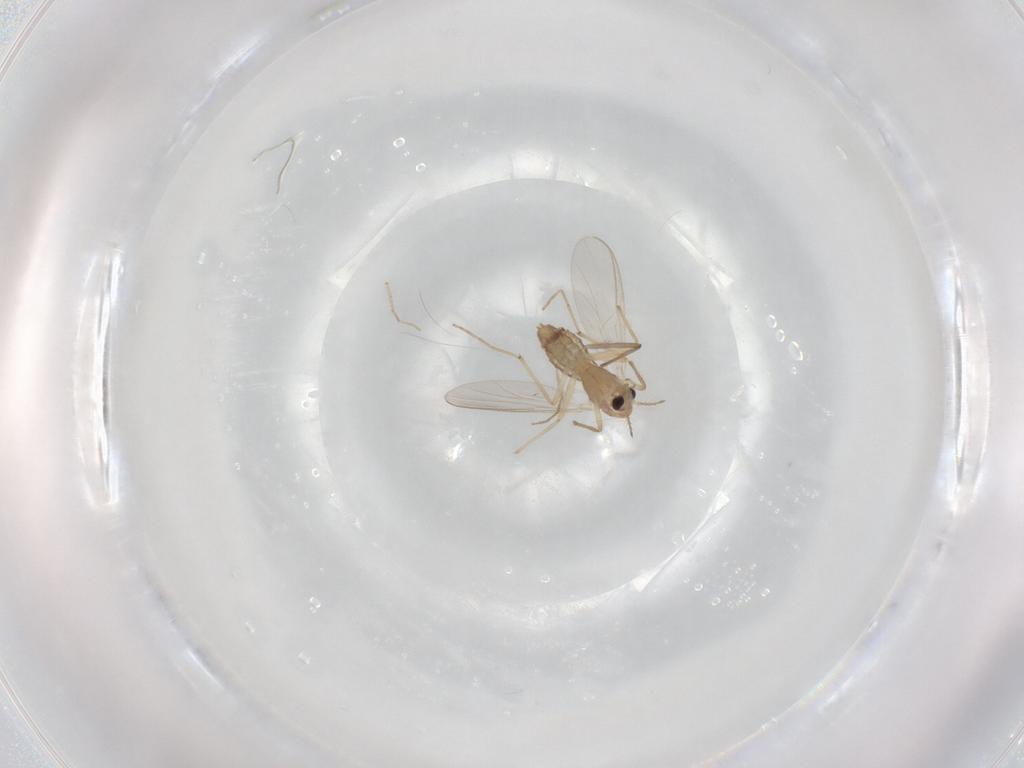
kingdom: Animalia
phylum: Arthropoda
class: Insecta
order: Diptera
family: Chironomidae
